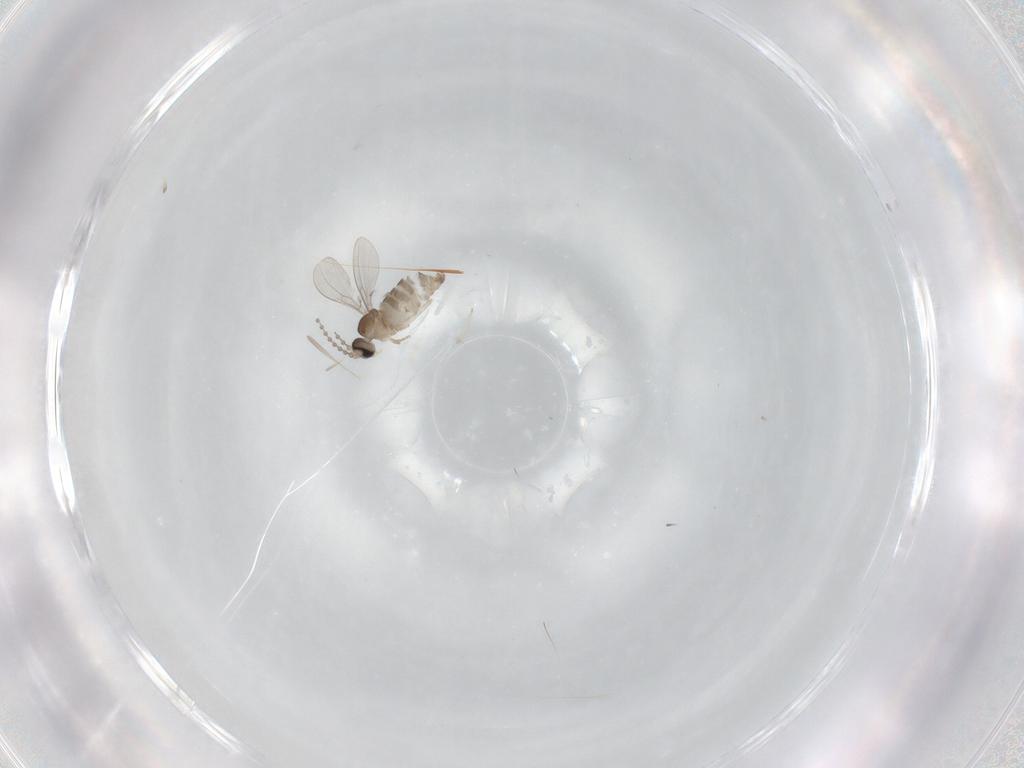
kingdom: Animalia
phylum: Arthropoda
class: Insecta
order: Diptera
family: Cecidomyiidae
